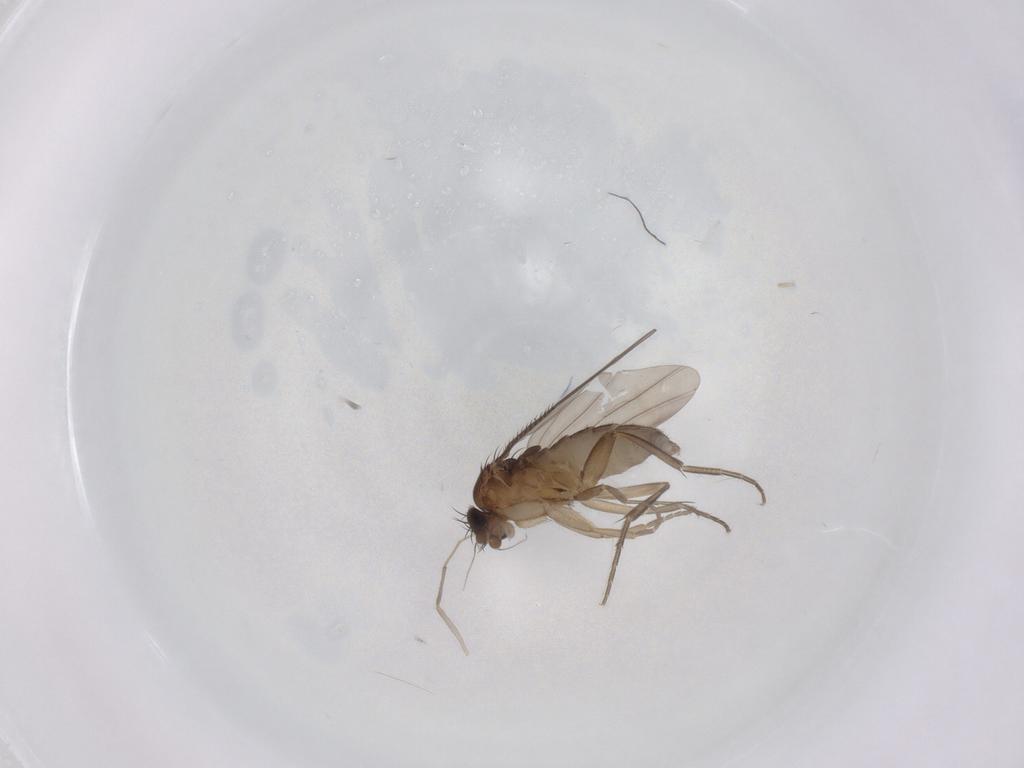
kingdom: Animalia
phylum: Arthropoda
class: Insecta
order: Diptera
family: Phoridae
